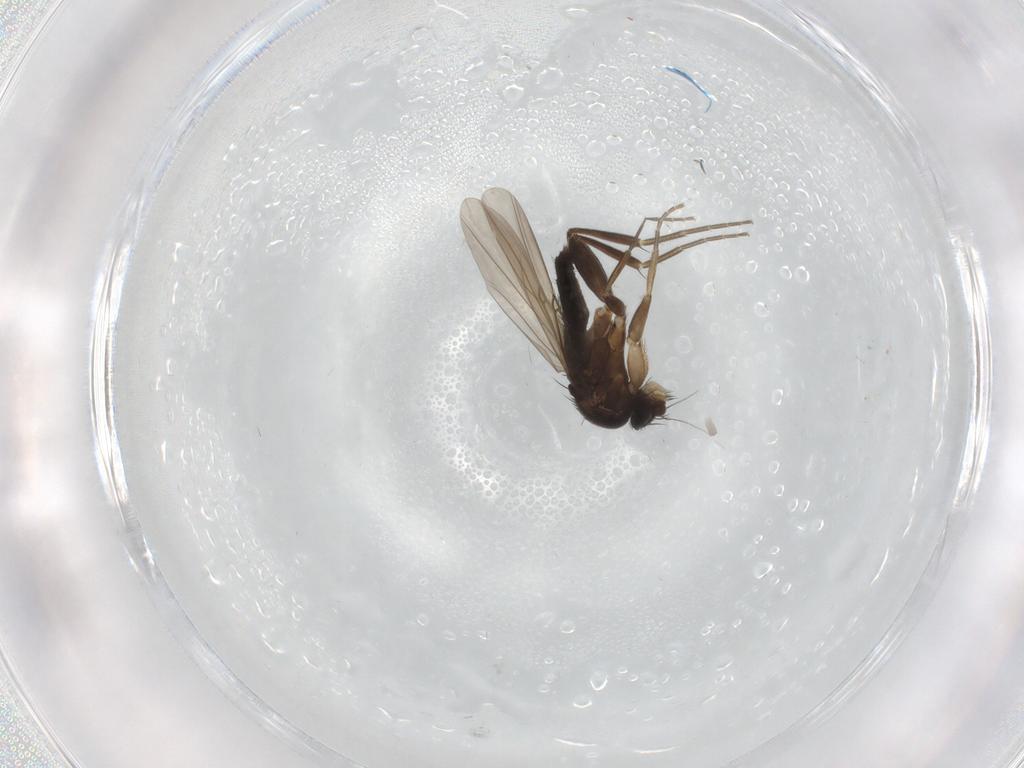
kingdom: Animalia
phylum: Arthropoda
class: Insecta
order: Diptera
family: Phoridae
